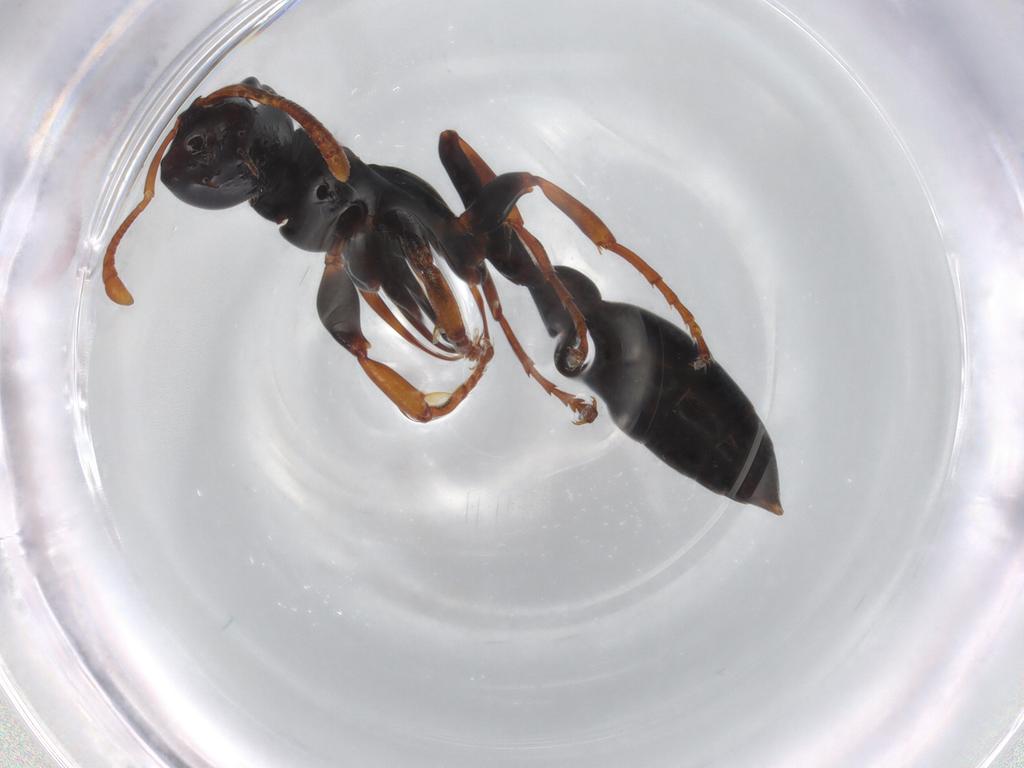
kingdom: Animalia
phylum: Arthropoda
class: Insecta
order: Hymenoptera
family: Formicidae
